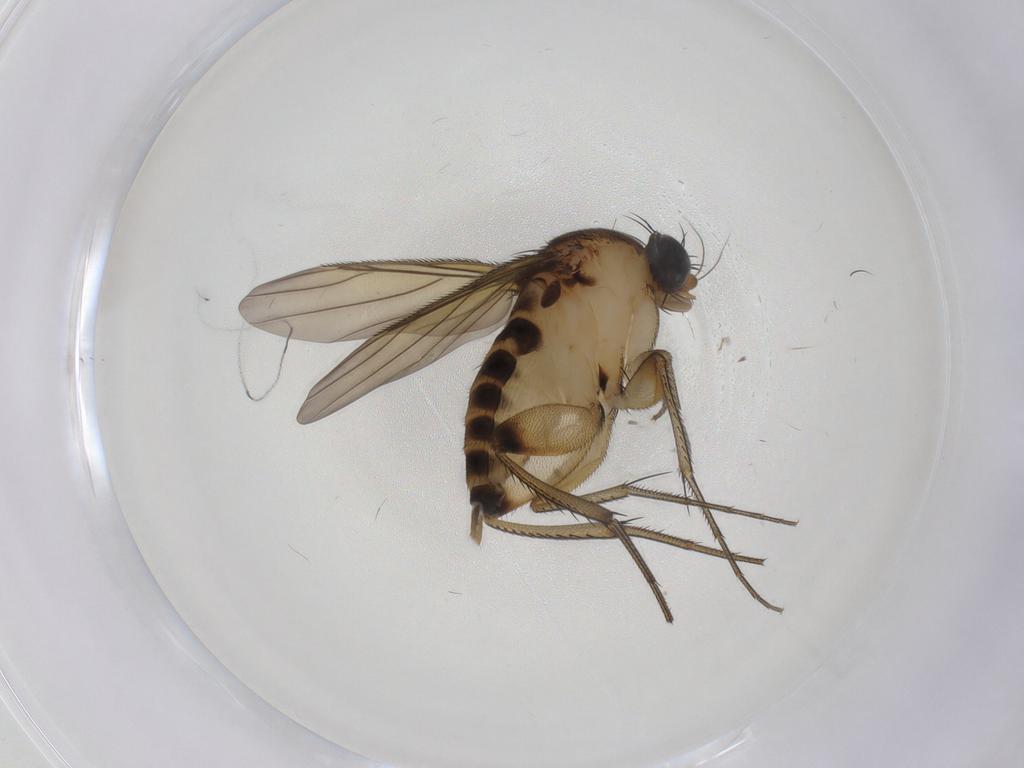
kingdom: Animalia
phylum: Arthropoda
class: Insecta
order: Diptera
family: Phoridae
